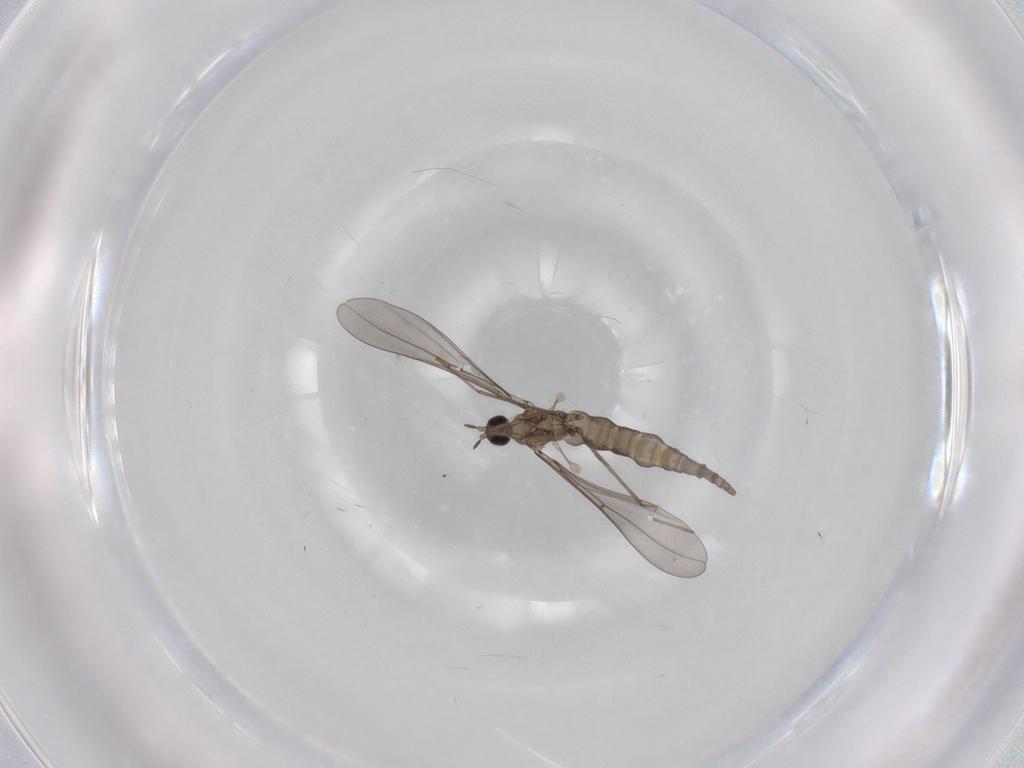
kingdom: Animalia
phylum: Arthropoda
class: Insecta
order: Diptera
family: Cecidomyiidae
